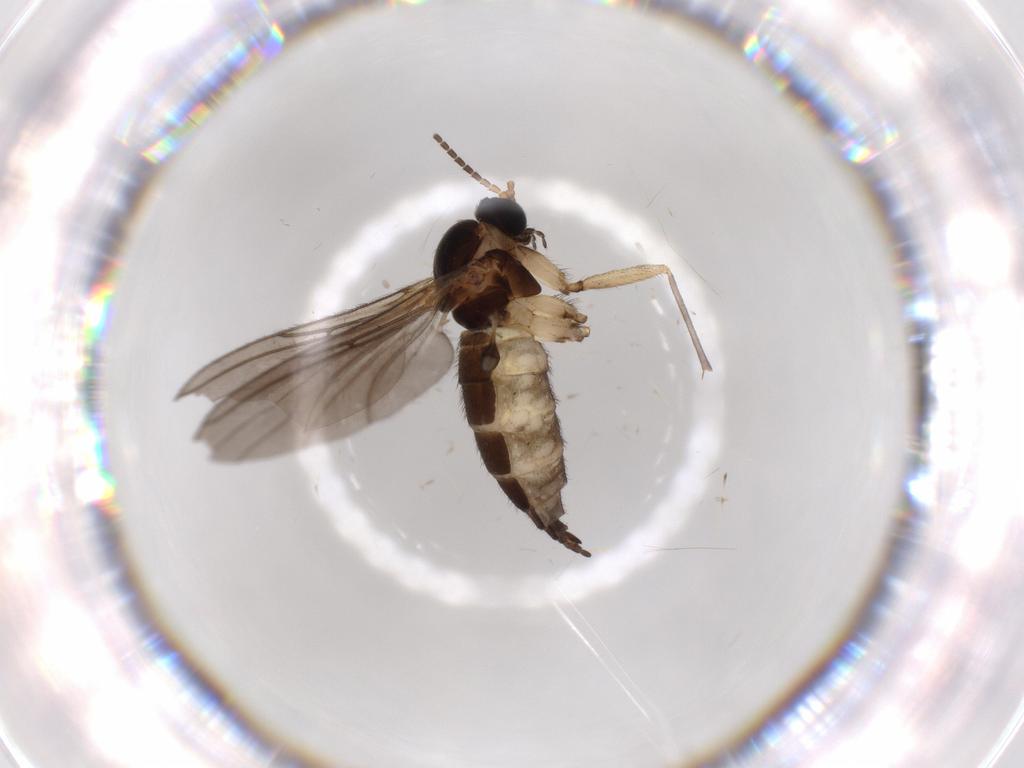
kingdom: Animalia
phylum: Arthropoda
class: Insecta
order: Diptera
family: Sciaridae
